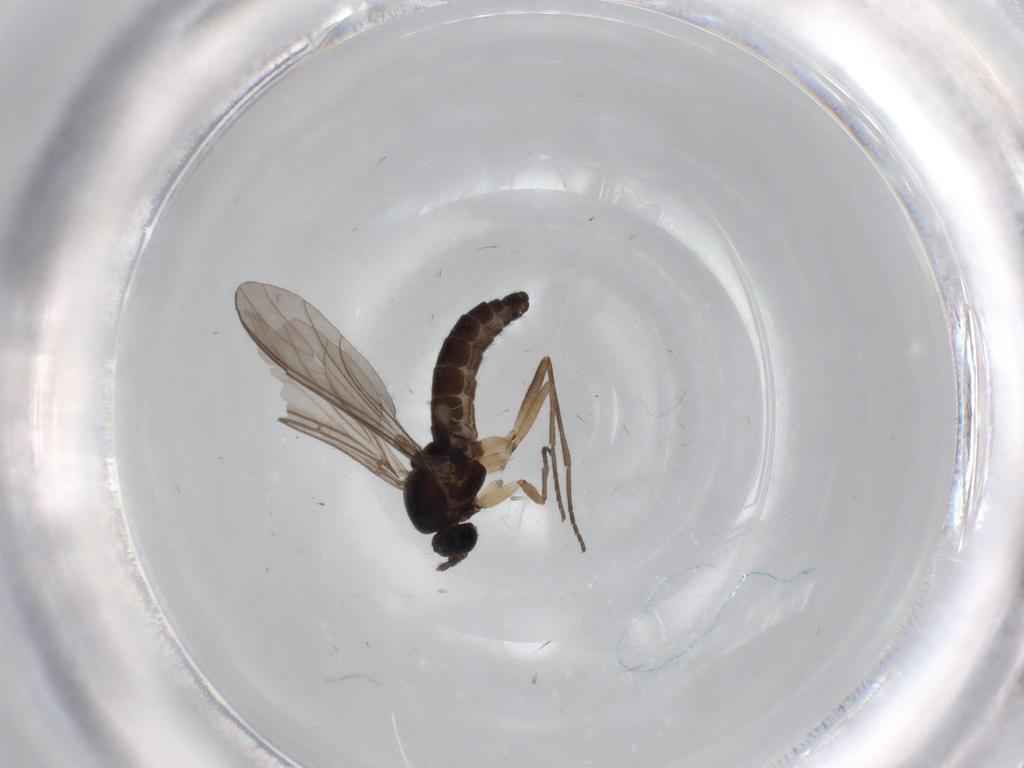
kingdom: Animalia
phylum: Arthropoda
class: Insecta
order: Diptera
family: Sciaridae
